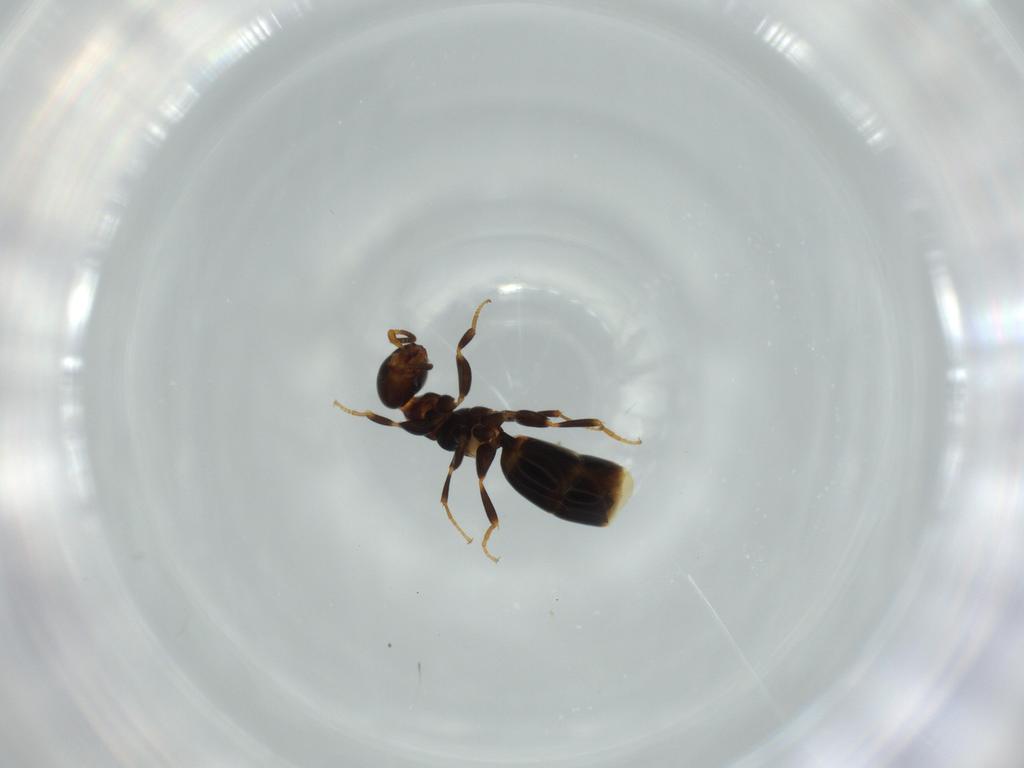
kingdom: Animalia
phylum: Arthropoda
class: Insecta
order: Hymenoptera
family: Bethylidae
